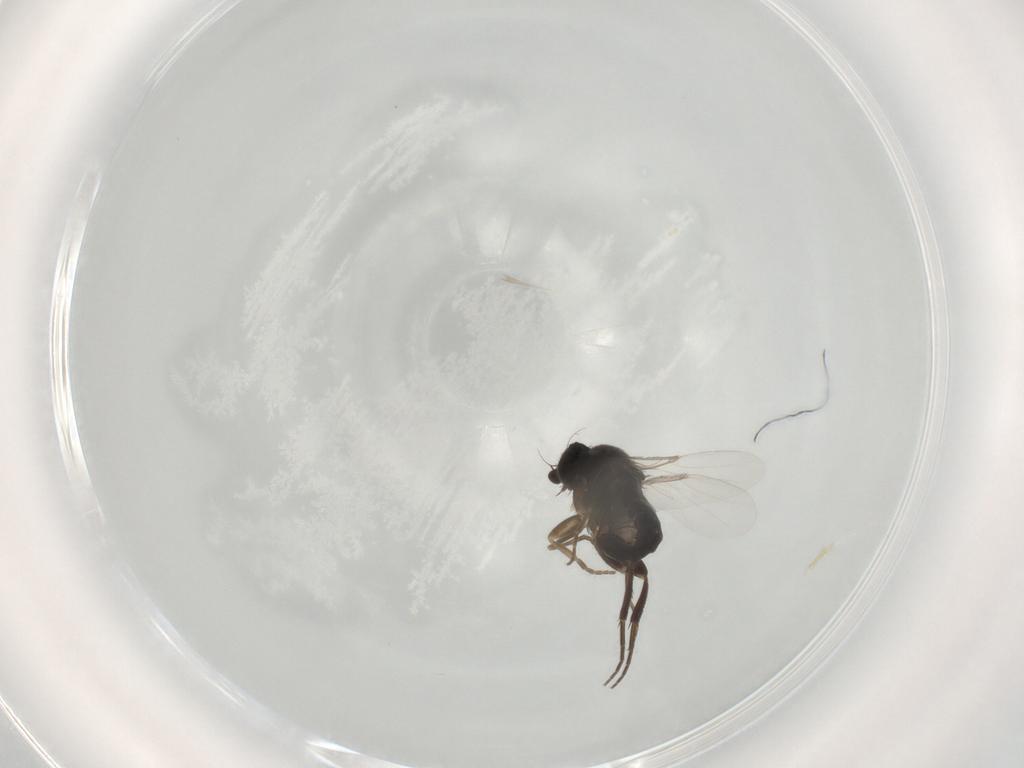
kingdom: Animalia
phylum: Arthropoda
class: Insecta
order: Diptera
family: Phoridae
